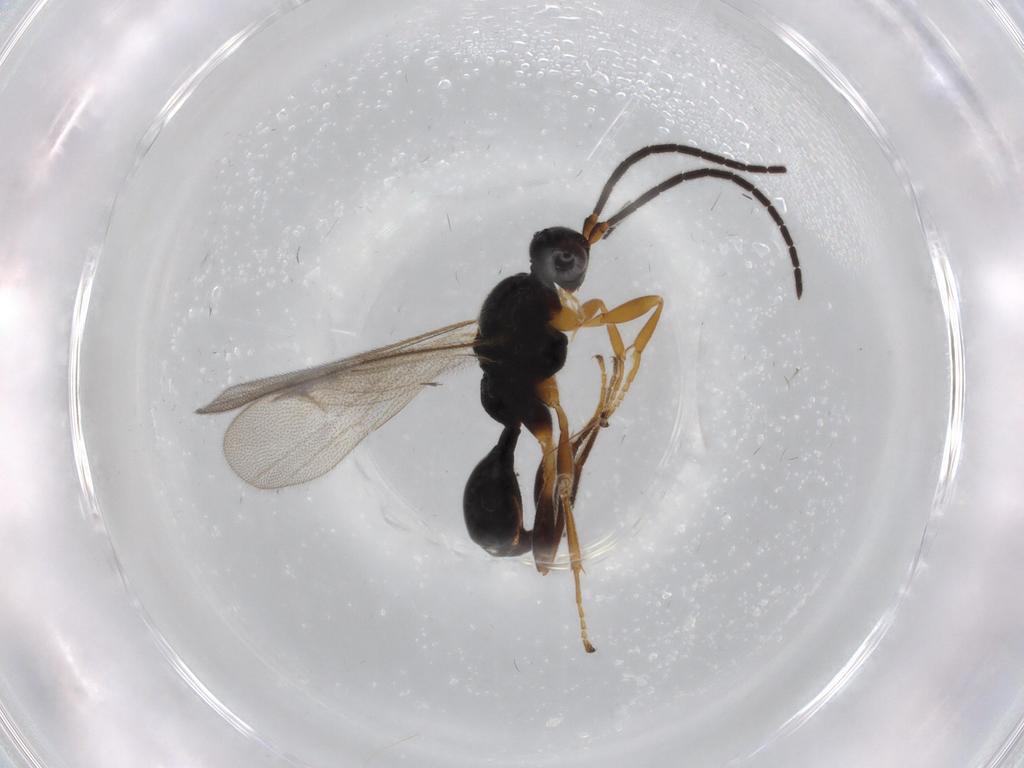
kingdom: Animalia
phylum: Arthropoda
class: Insecta
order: Hymenoptera
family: Proctotrupidae
